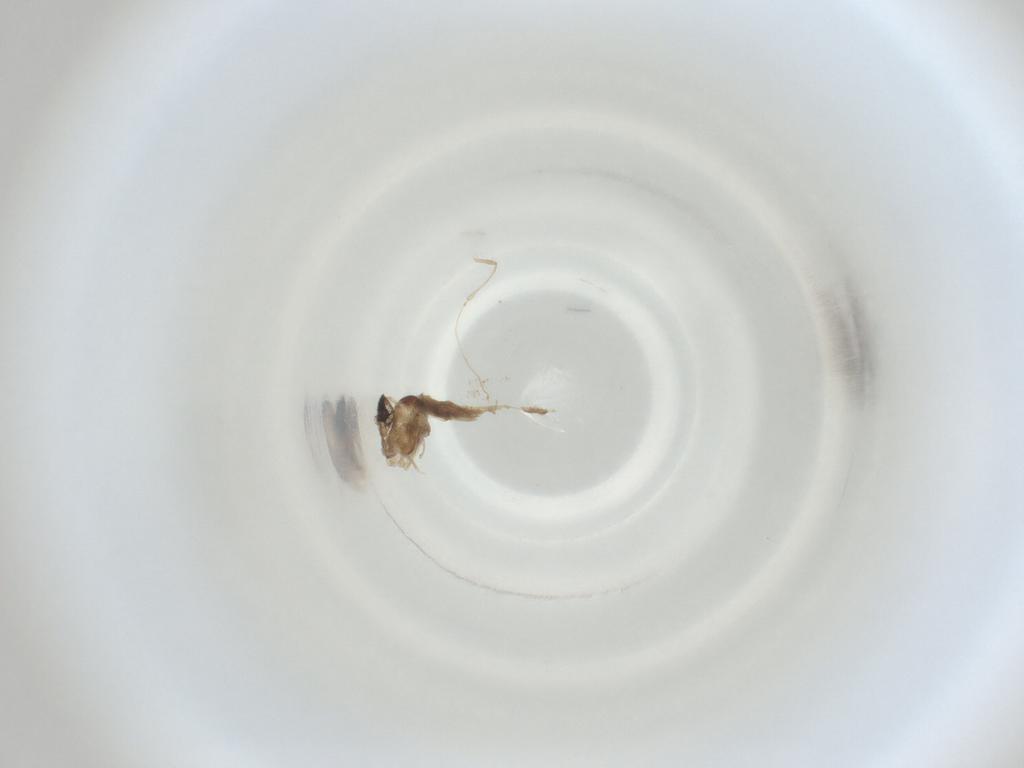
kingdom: Animalia
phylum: Arthropoda
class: Insecta
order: Diptera
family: Cecidomyiidae
